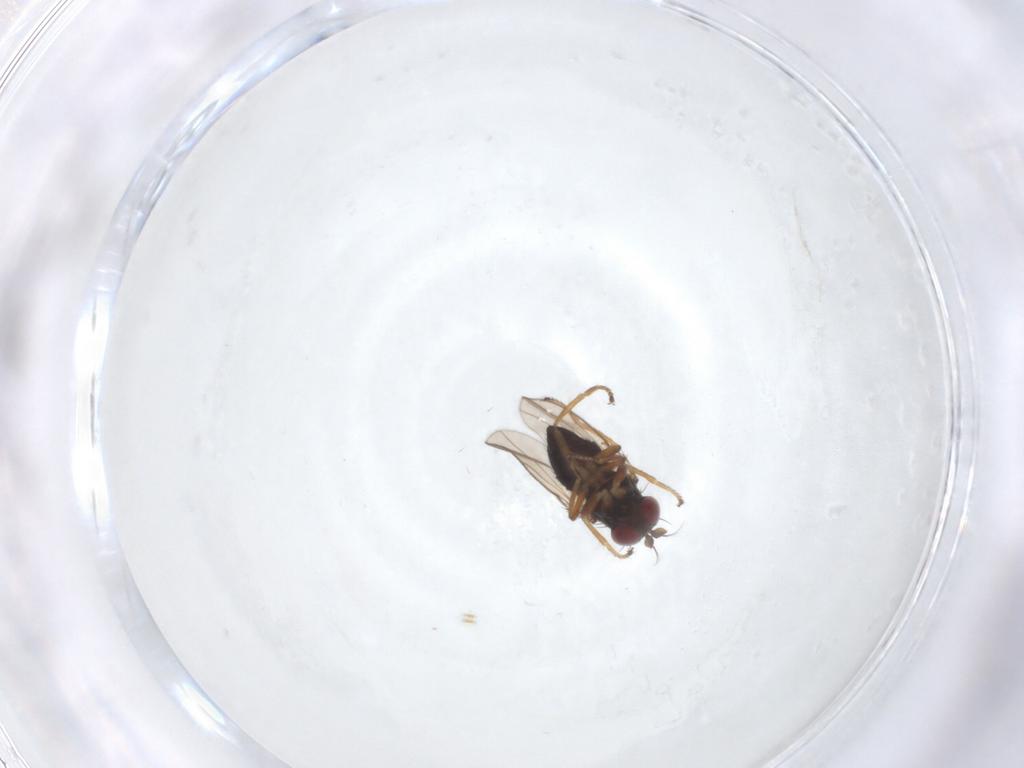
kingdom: Animalia
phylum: Arthropoda
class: Insecta
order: Diptera
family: Ephydridae
